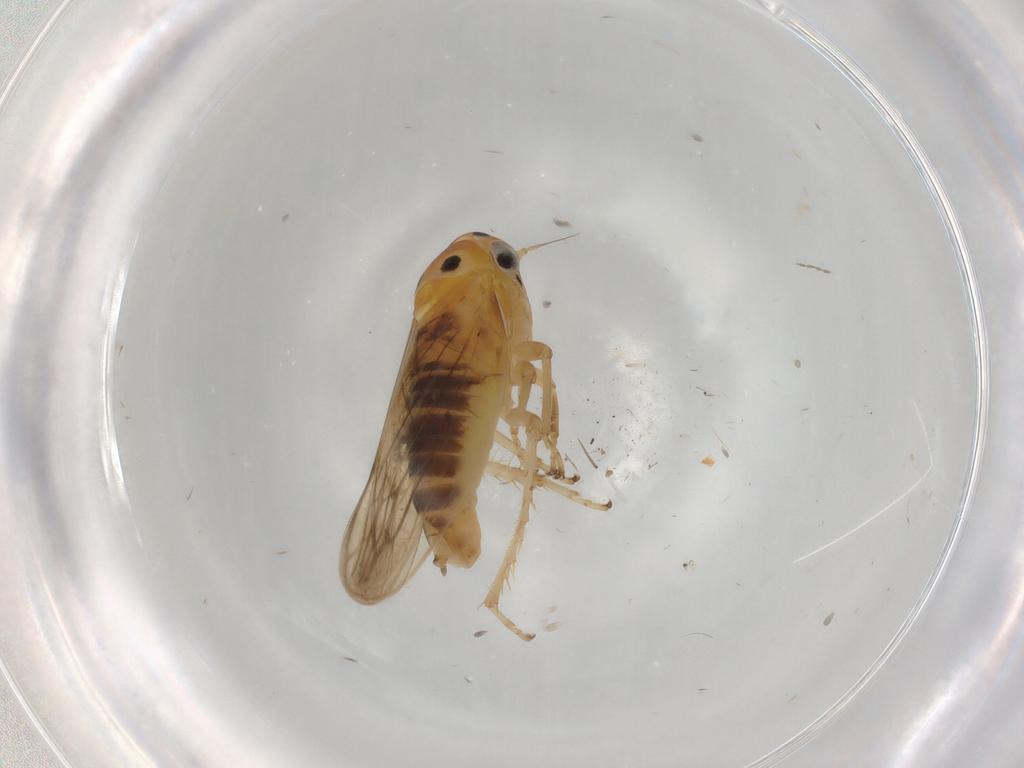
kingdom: Animalia
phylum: Arthropoda
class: Insecta
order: Hemiptera
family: Cicadellidae
